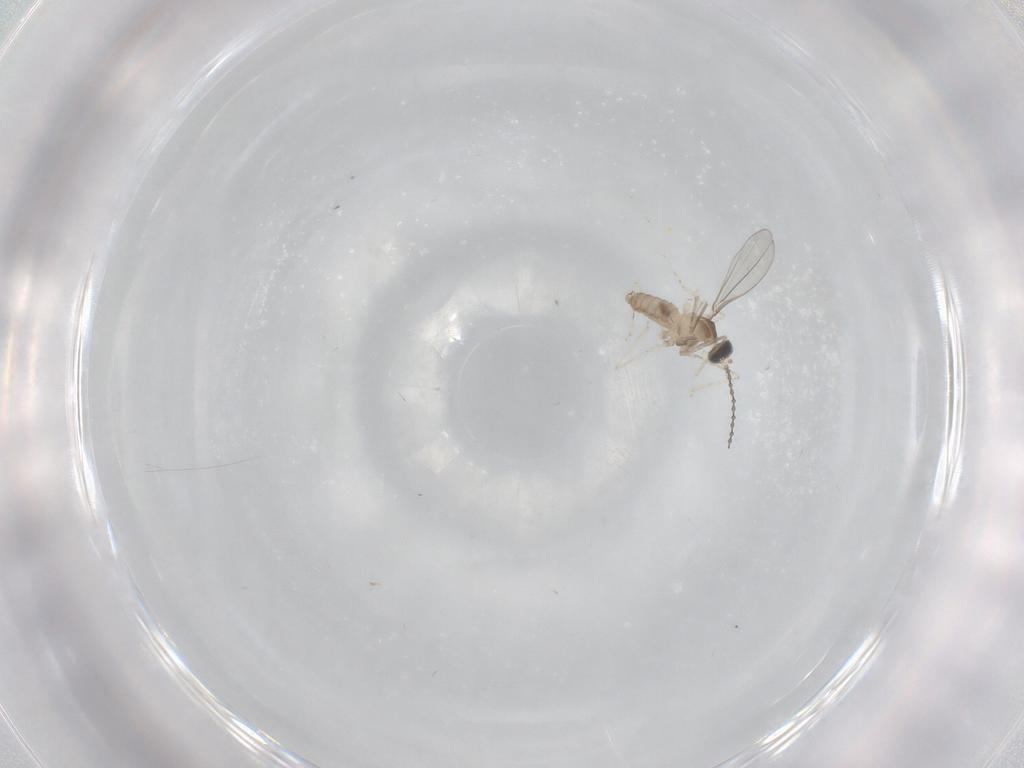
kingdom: Animalia
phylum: Arthropoda
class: Insecta
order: Diptera
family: Cecidomyiidae
